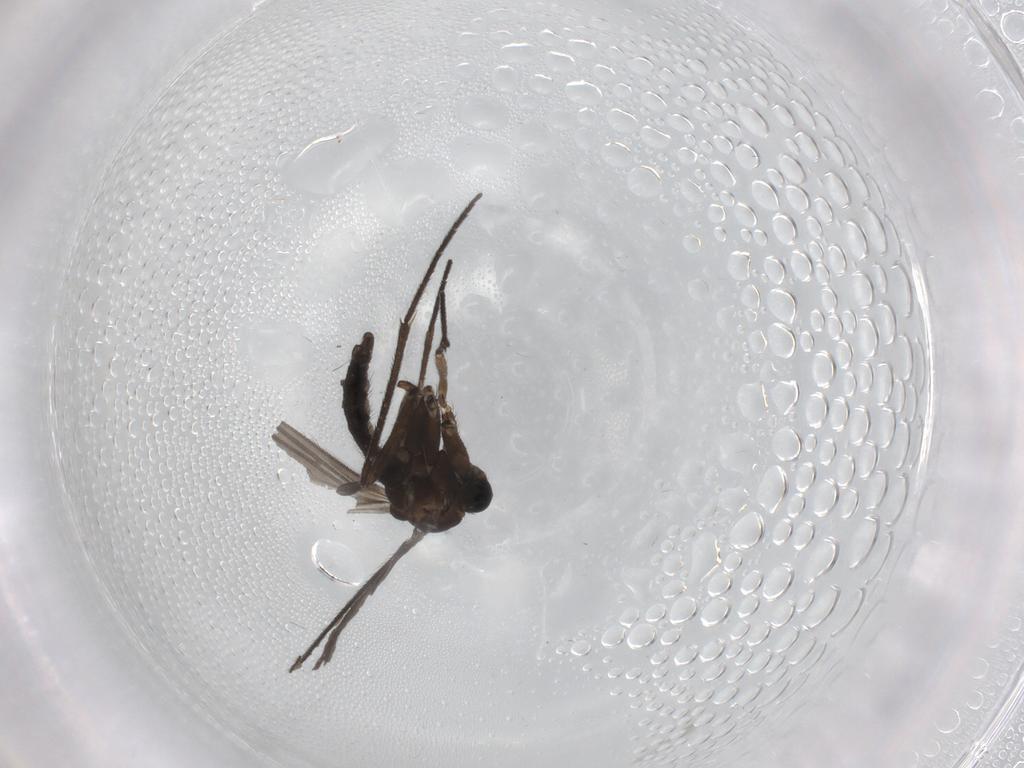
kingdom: Animalia
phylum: Arthropoda
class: Insecta
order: Diptera
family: Sciaridae
